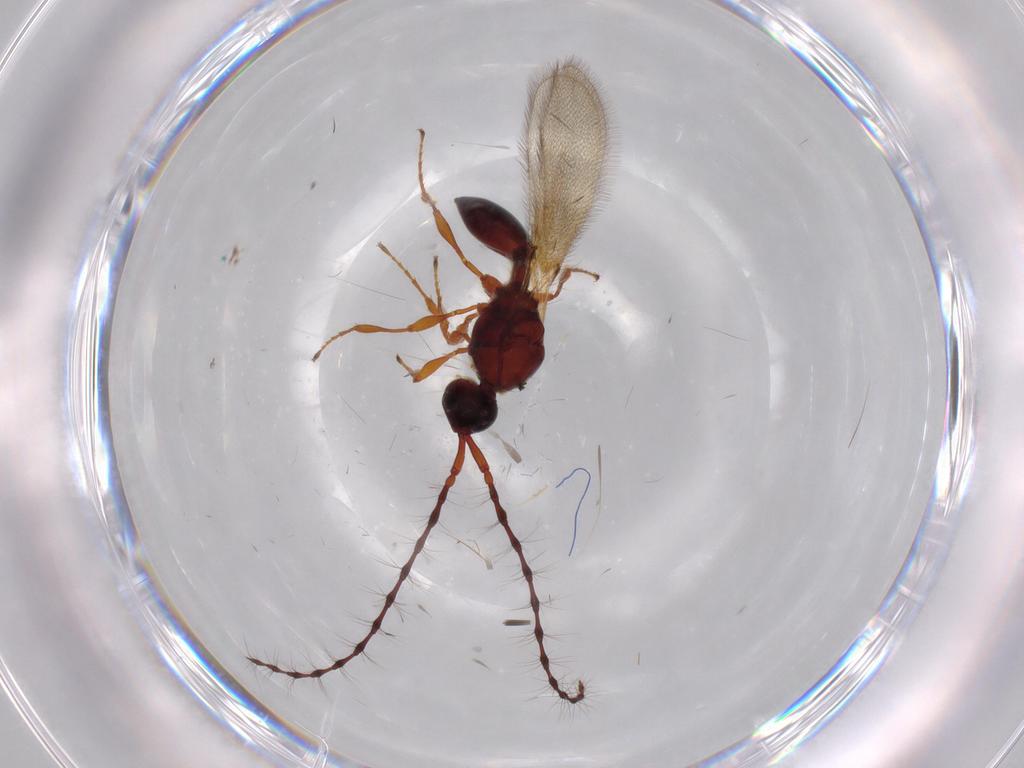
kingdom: Animalia
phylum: Arthropoda
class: Insecta
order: Hymenoptera
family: Diapriidae
